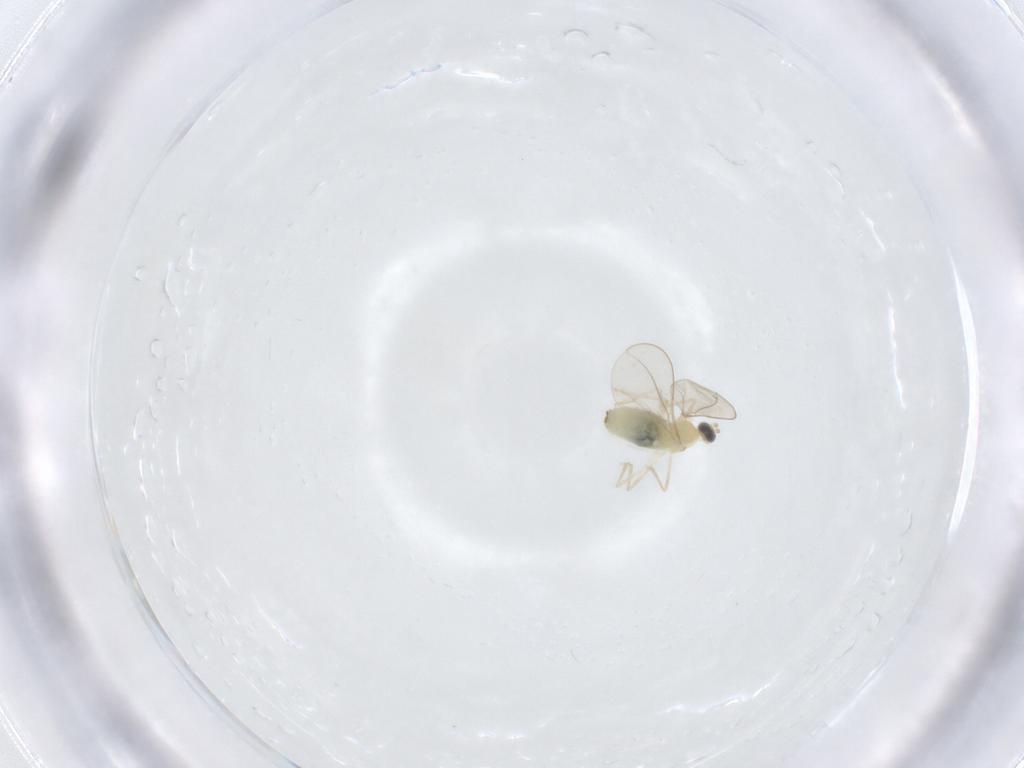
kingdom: Animalia
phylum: Arthropoda
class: Insecta
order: Diptera
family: Cecidomyiidae
